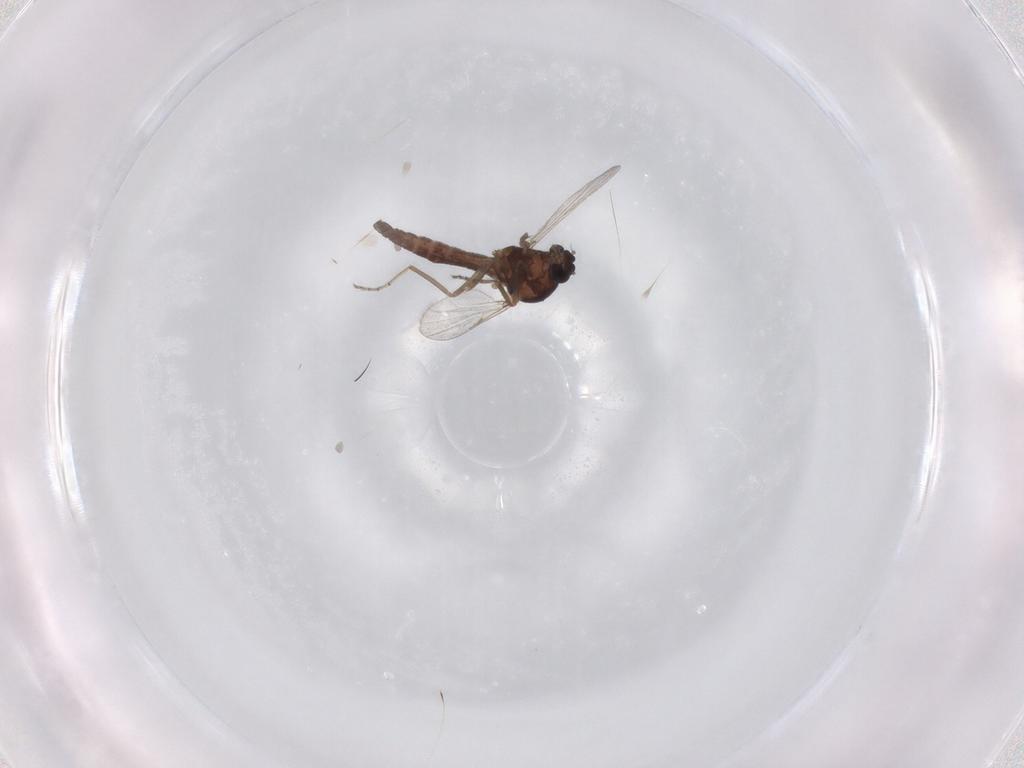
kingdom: Animalia
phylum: Arthropoda
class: Insecta
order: Diptera
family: Ceratopogonidae
